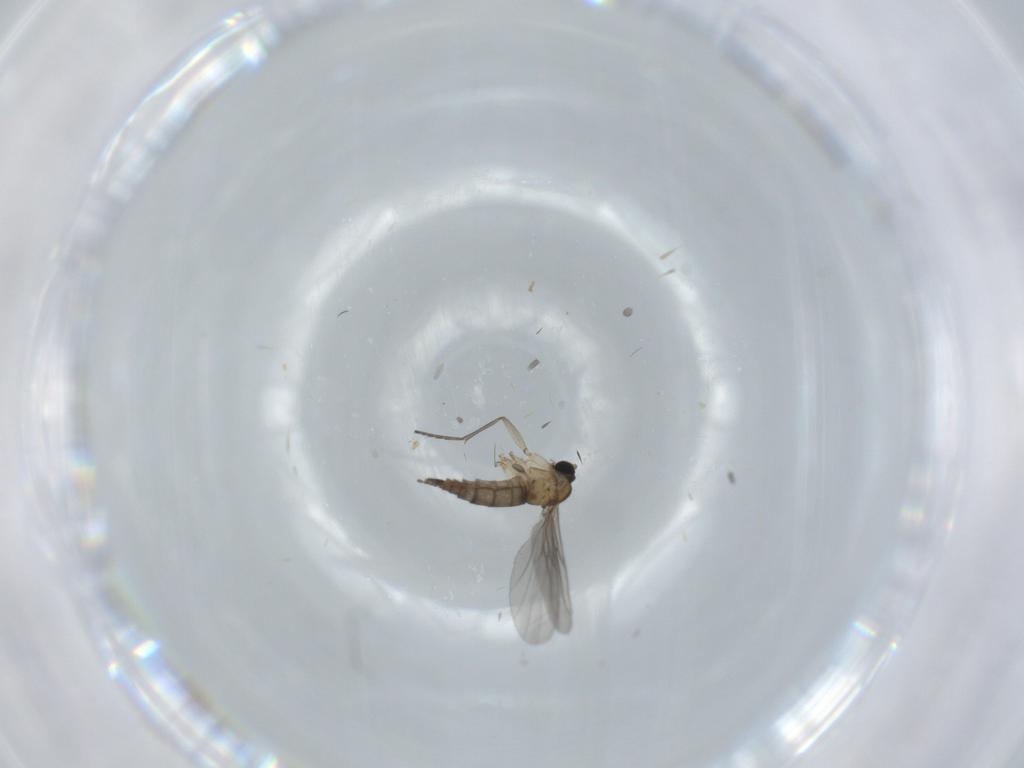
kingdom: Animalia
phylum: Arthropoda
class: Insecta
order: Diptera
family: Sciaridae
